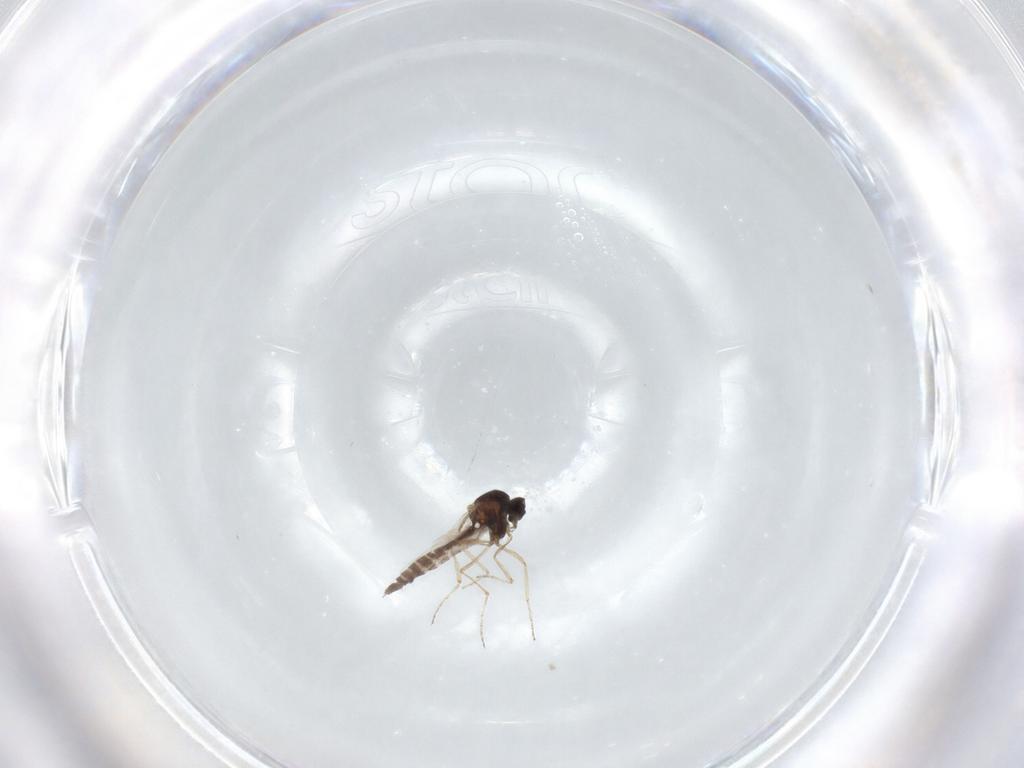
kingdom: Animalia
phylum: Arthropoda
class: Insecta
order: Diptera
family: Ceratopogonidae
